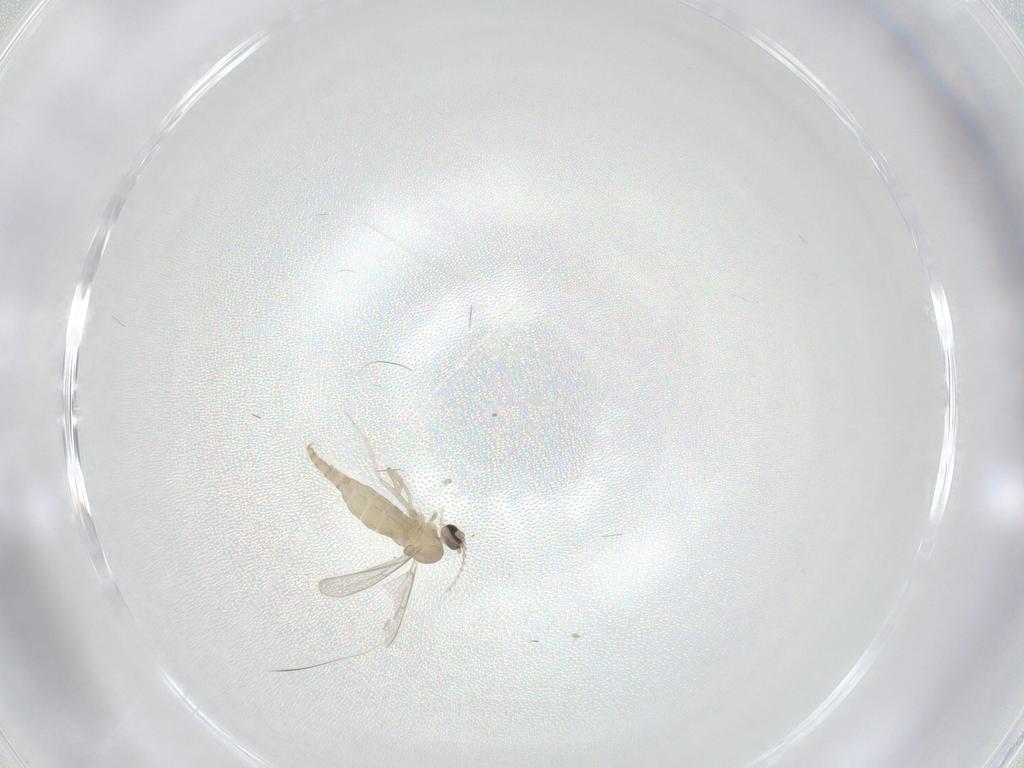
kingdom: Animalia
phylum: Arthropoda
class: Insecta
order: Diptera
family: Cecidomyiidae
